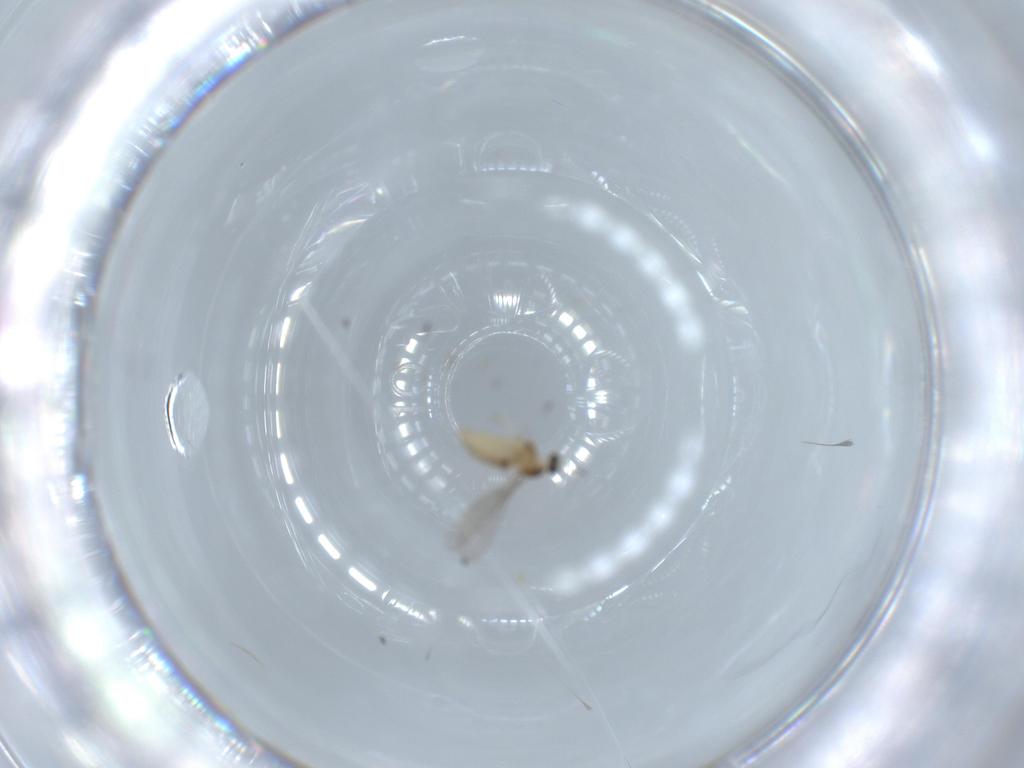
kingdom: Animalia
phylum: Arthropoda
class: Insecta
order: Diptera
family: Cecidomyiidae
